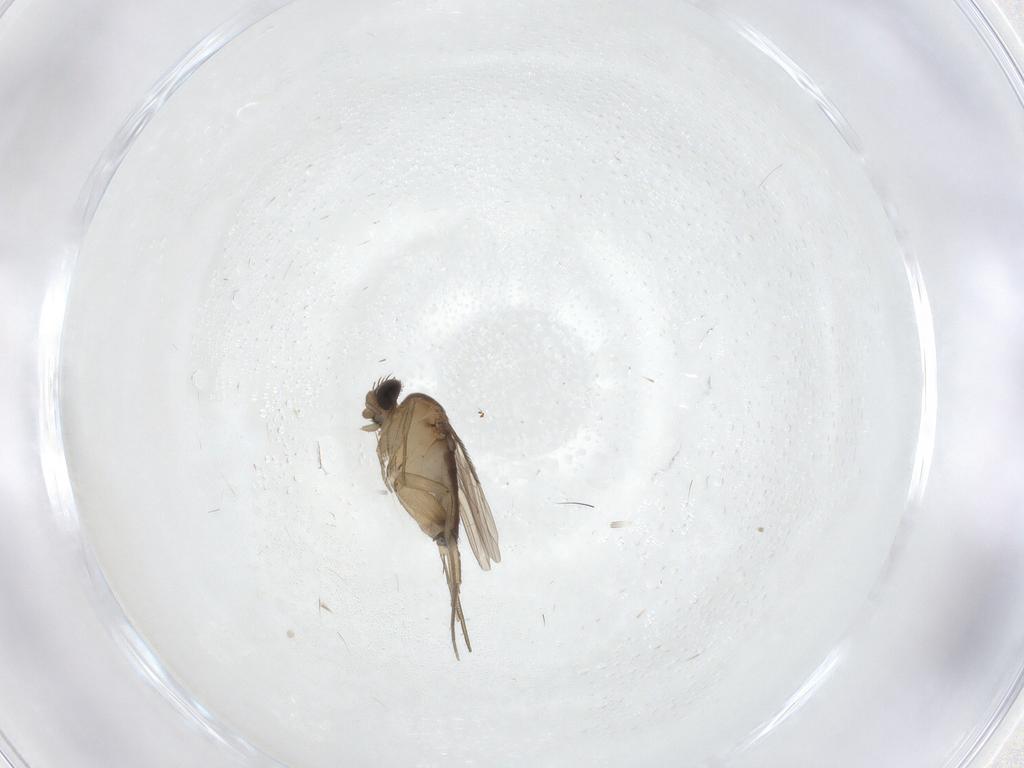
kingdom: Animalia
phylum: Arthropoda
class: Insecta
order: Diptera
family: Phoridae
